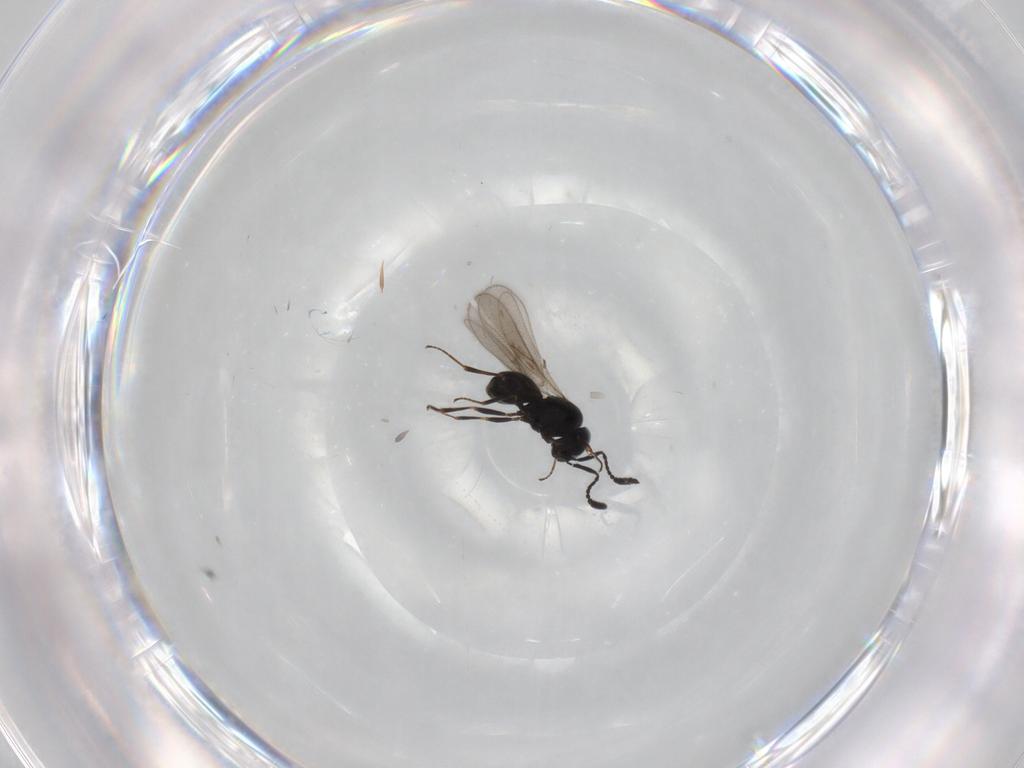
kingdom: Animalia
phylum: Arthropoda
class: Insecta
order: Hymenoptera
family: Scelionidae
